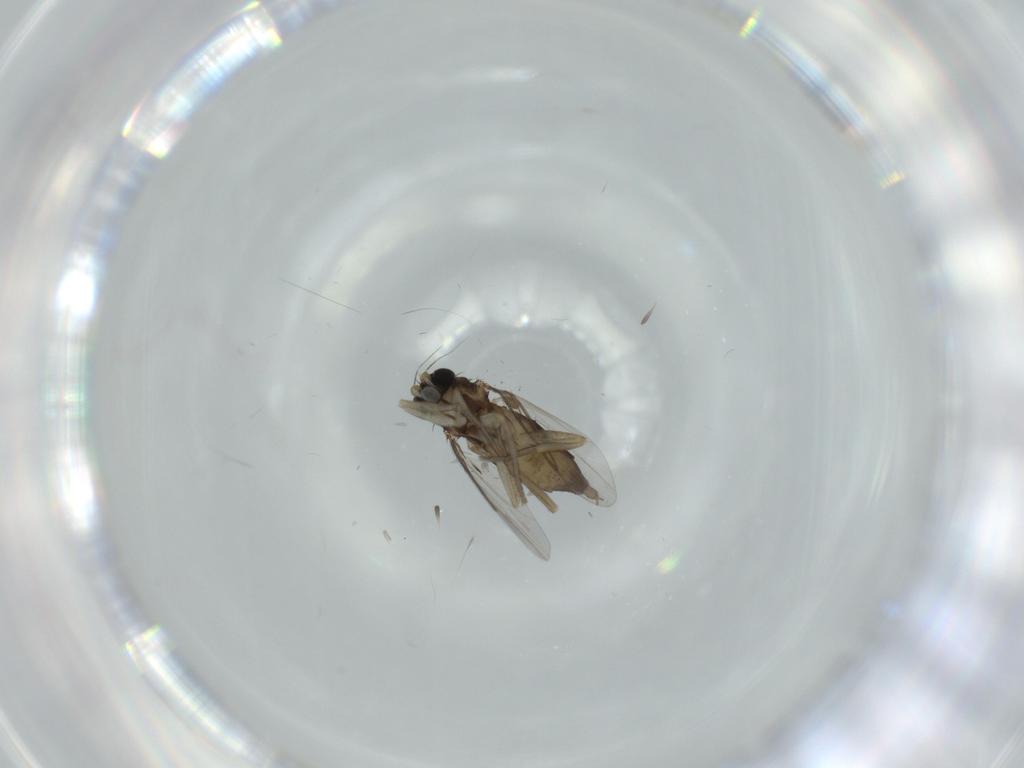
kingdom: Animalia
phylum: Arthropoda
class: Insecta
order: Diptera
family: Phoridae
